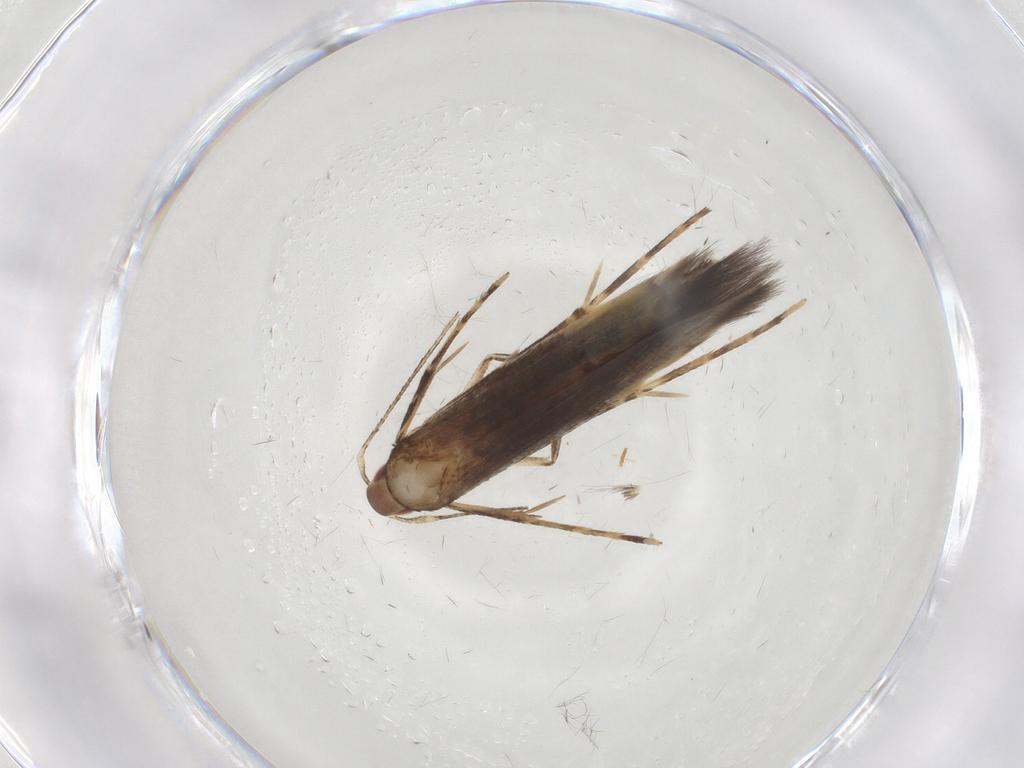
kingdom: Animalia
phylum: Arthropoda
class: Insecta
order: Lepidoptera
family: Cosmopterigidae
